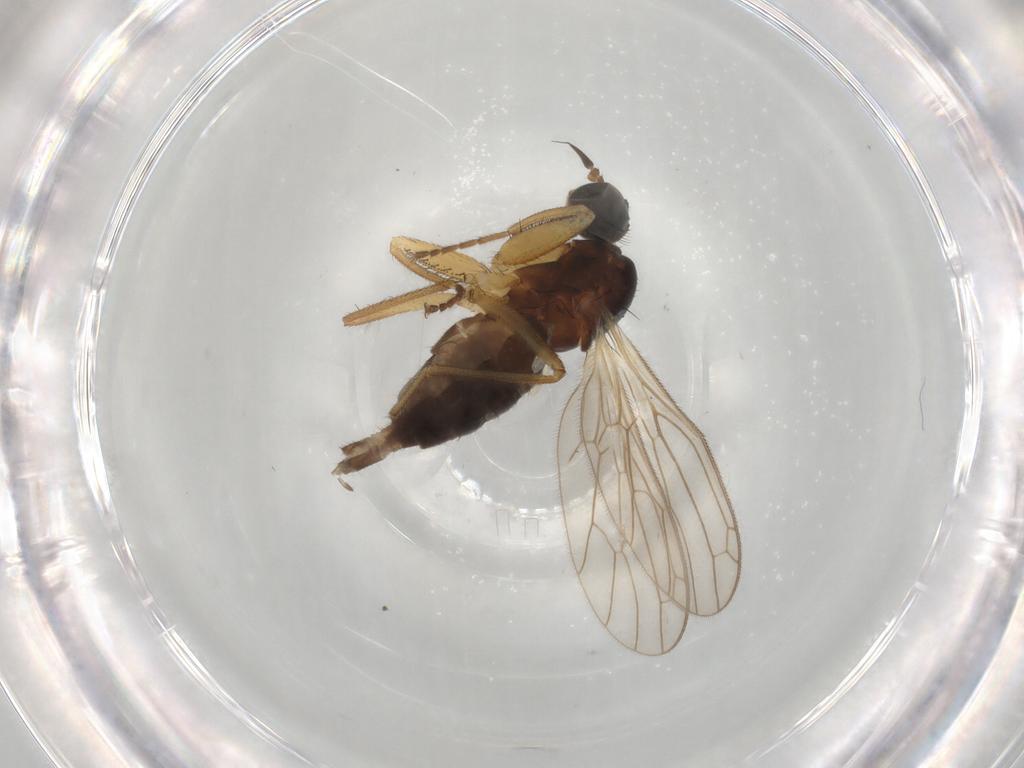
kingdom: Animalia
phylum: Arthropoda
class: Insecta
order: Diptera
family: Cecidomyiidae
